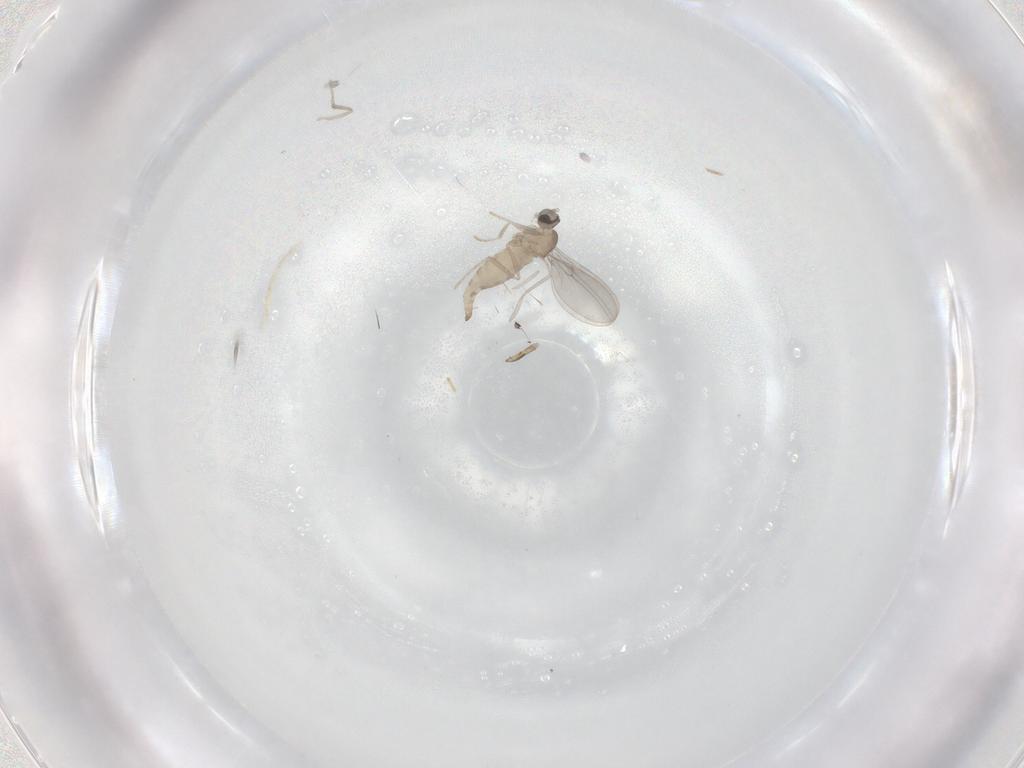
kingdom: Animalia
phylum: Arthropoda
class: Insecta
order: Diptera
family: Cecidomyiidae
